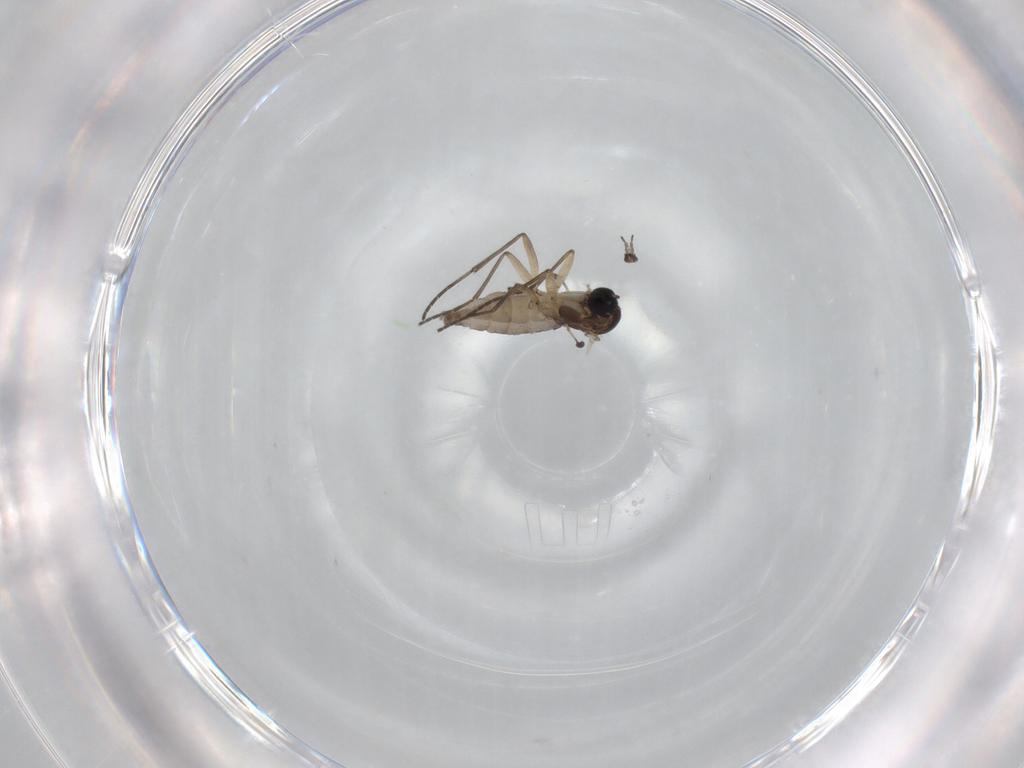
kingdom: Animalia
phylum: Arthropoda
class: Insecta
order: Diptera
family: Sciaridae
